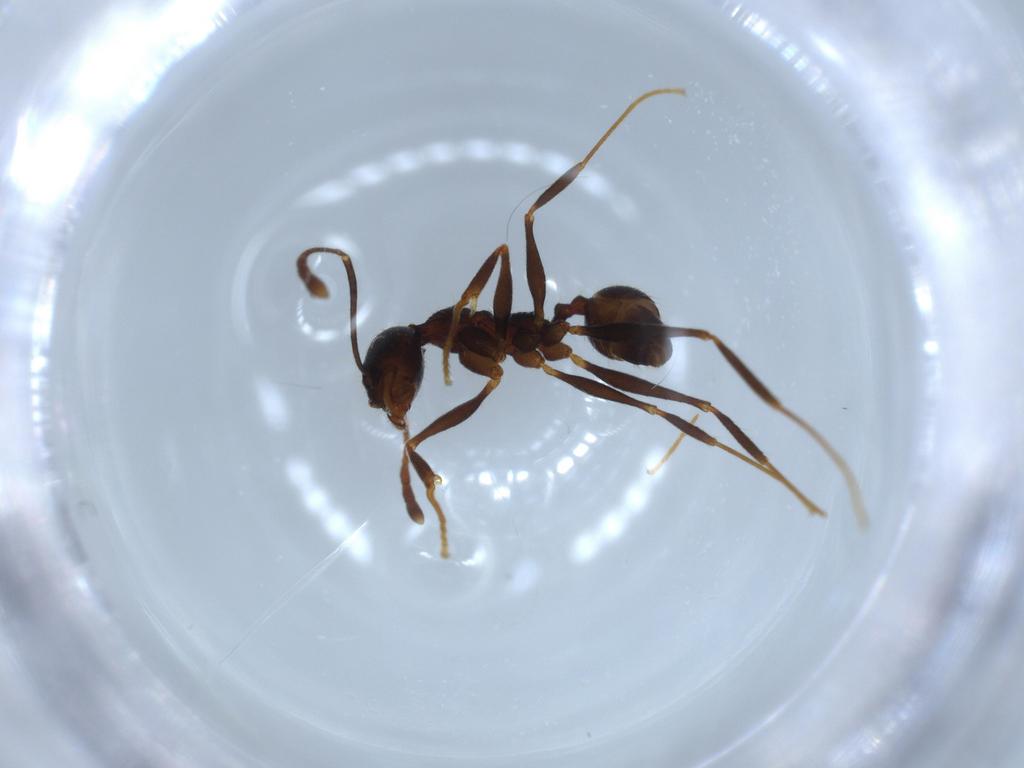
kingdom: Animalia
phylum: Arthropoda
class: Insecta
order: Hymenoptera
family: Formicidae
